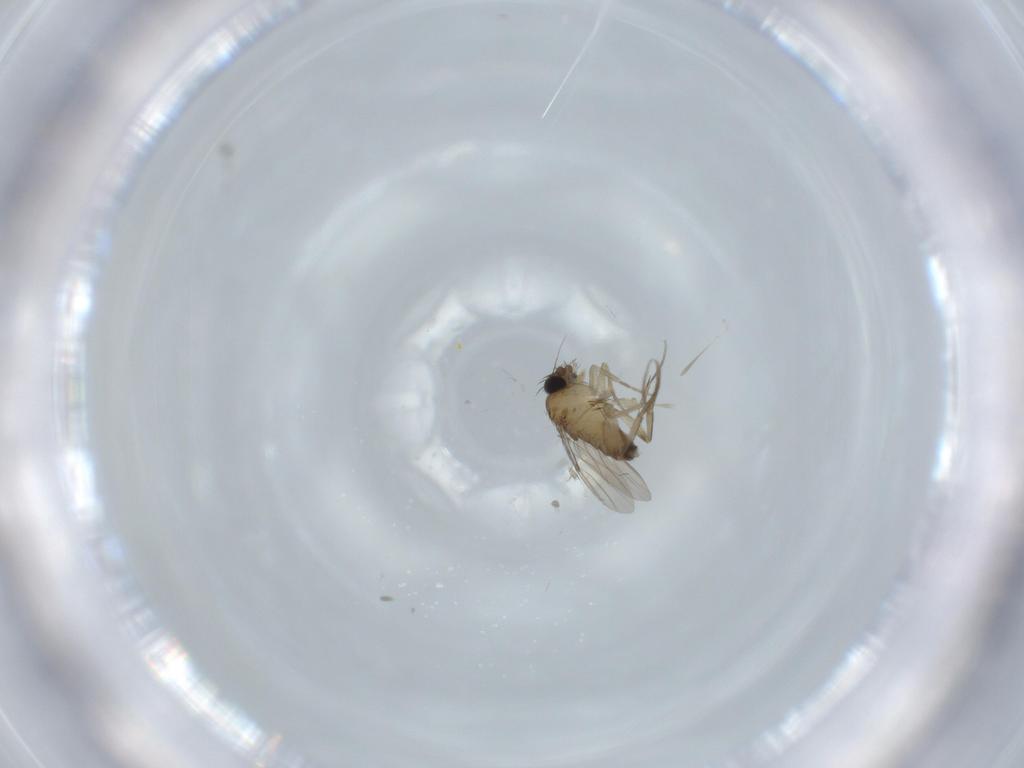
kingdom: Animalia
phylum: Arthropoda
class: Insecta
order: Diptera
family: Phoridae
